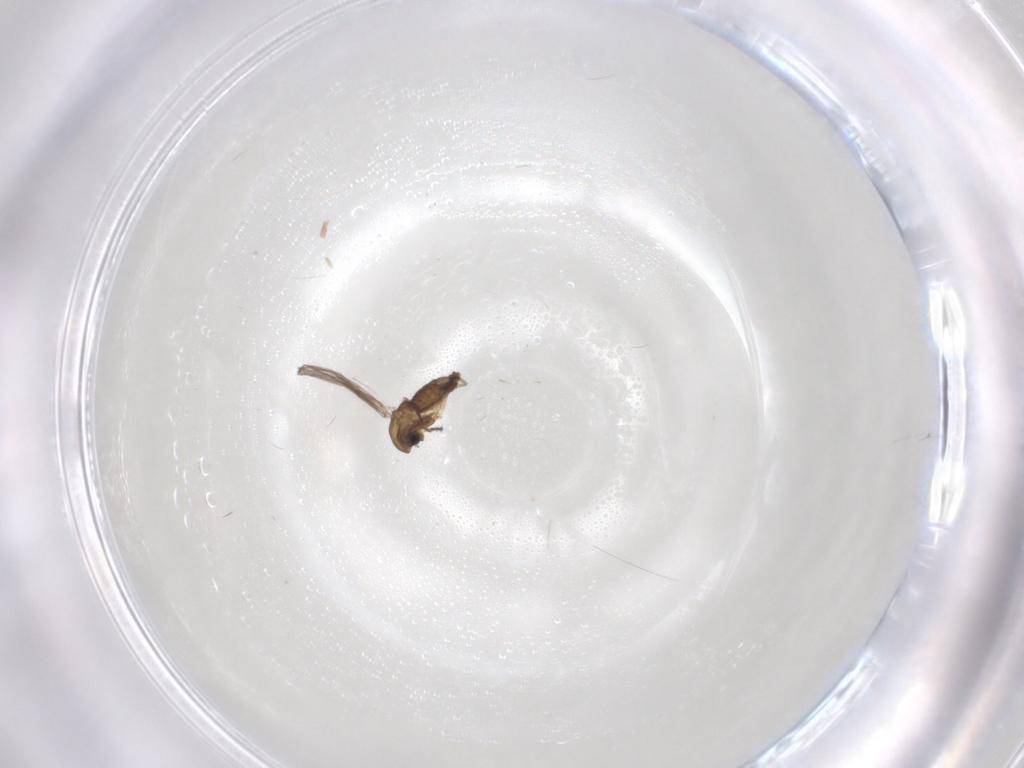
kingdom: Animalia
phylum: Arthropoda
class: Insecta
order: Diptera
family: Chironomidae
